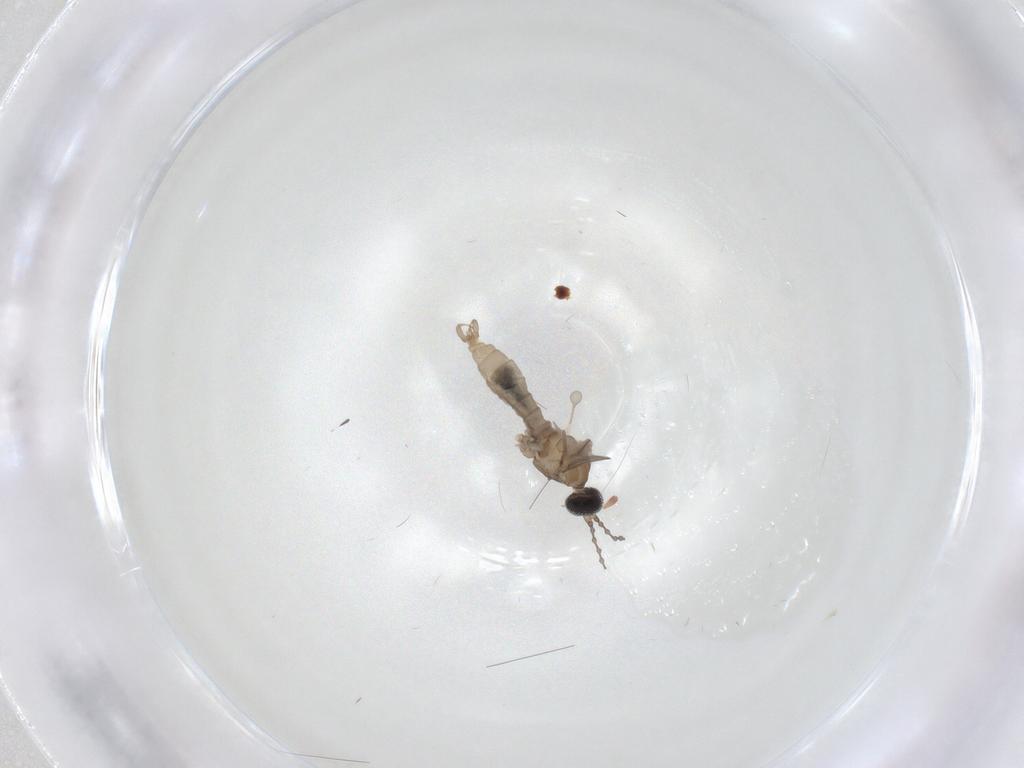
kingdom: Animalia
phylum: Arthropoda
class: Insecta
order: Diptera
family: Cecidomyiidae
